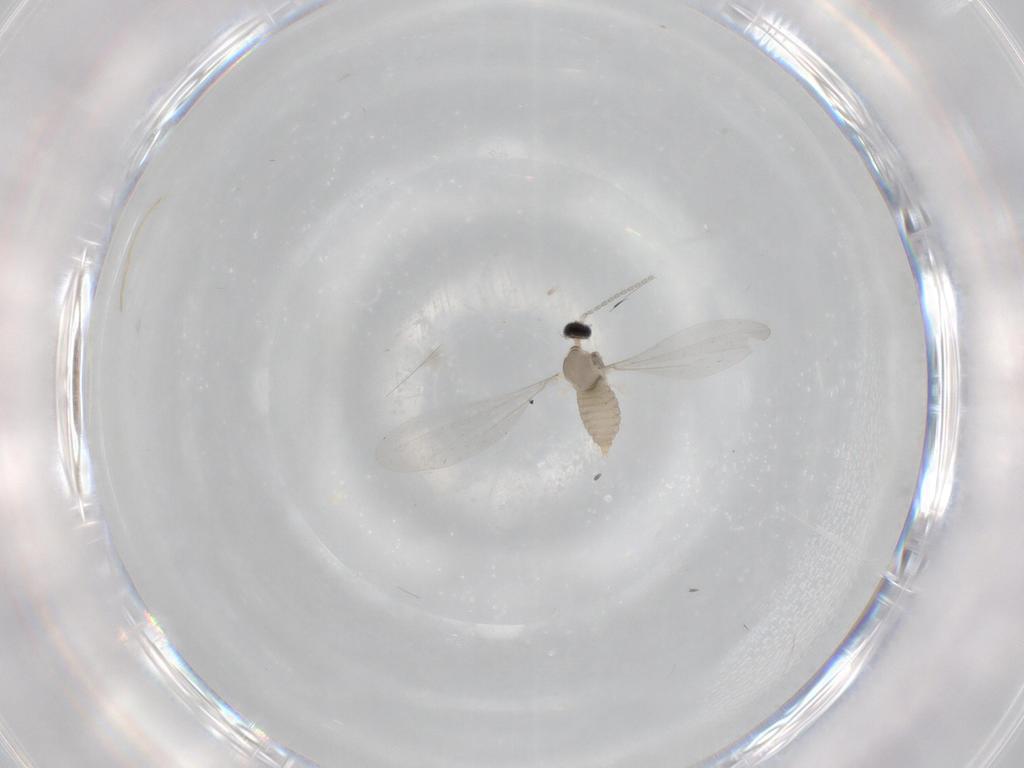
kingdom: Animalia
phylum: Arthropoda
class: Insecta
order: Diptera
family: Cecidomyiidae
